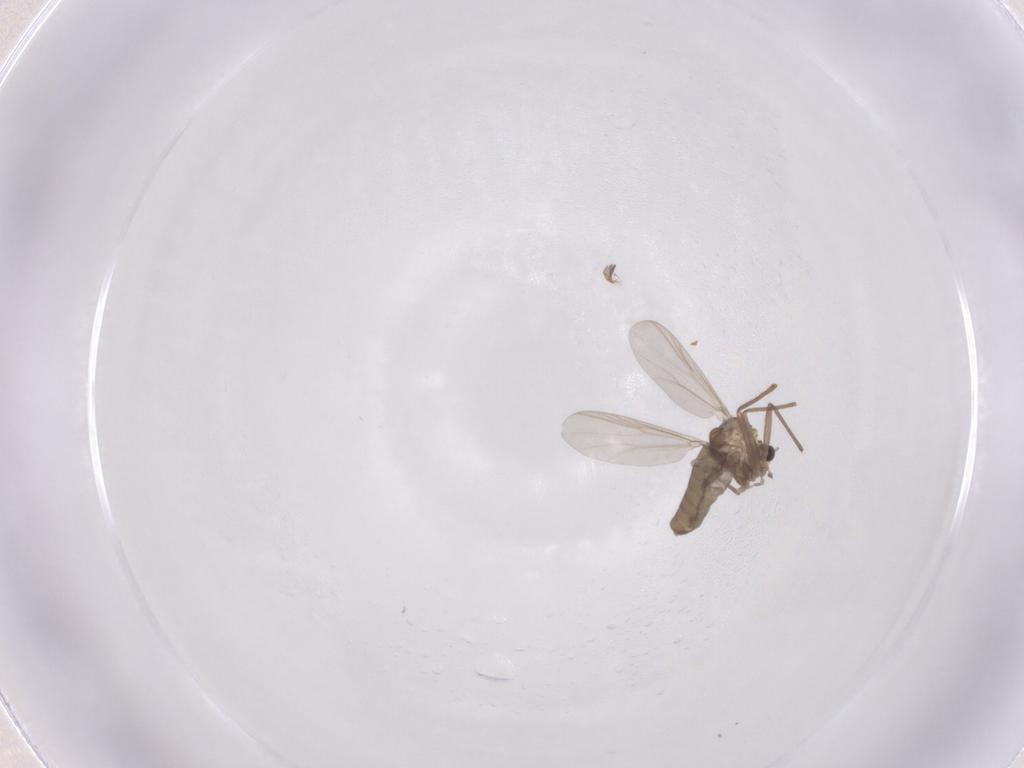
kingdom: Animalia
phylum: Arthropoda
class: Insecta
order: Diptera
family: Chironomidae
